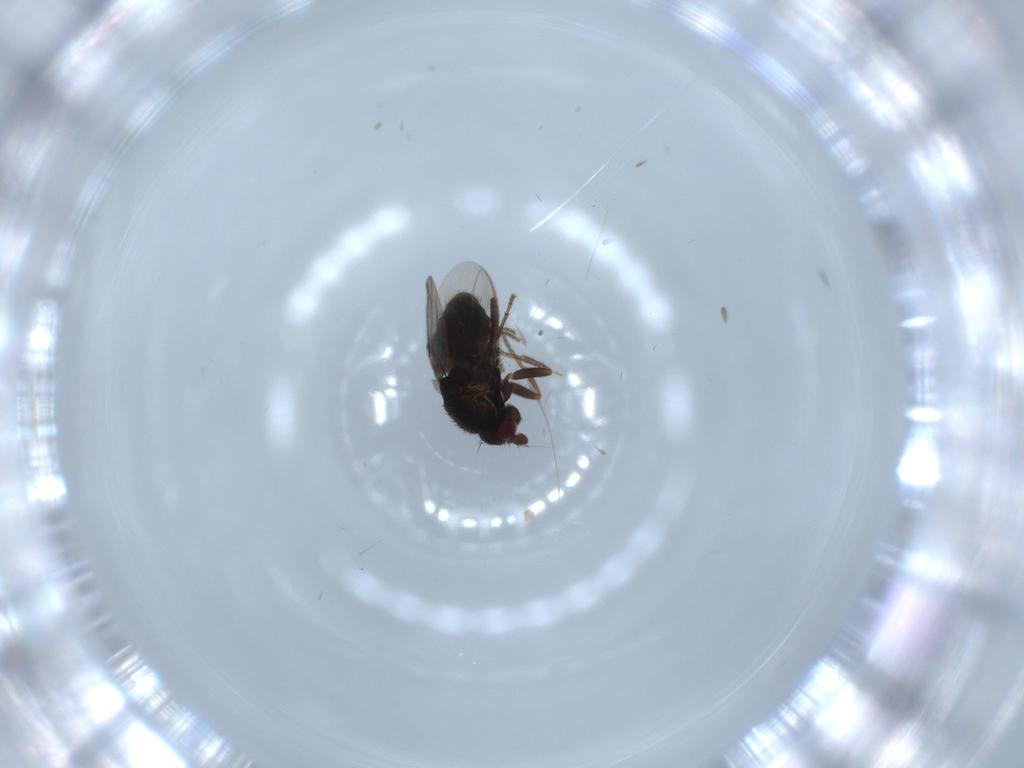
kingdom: Animalia
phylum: Arthropoda
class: Insecta
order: Diptera
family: Sphaeroceridae
